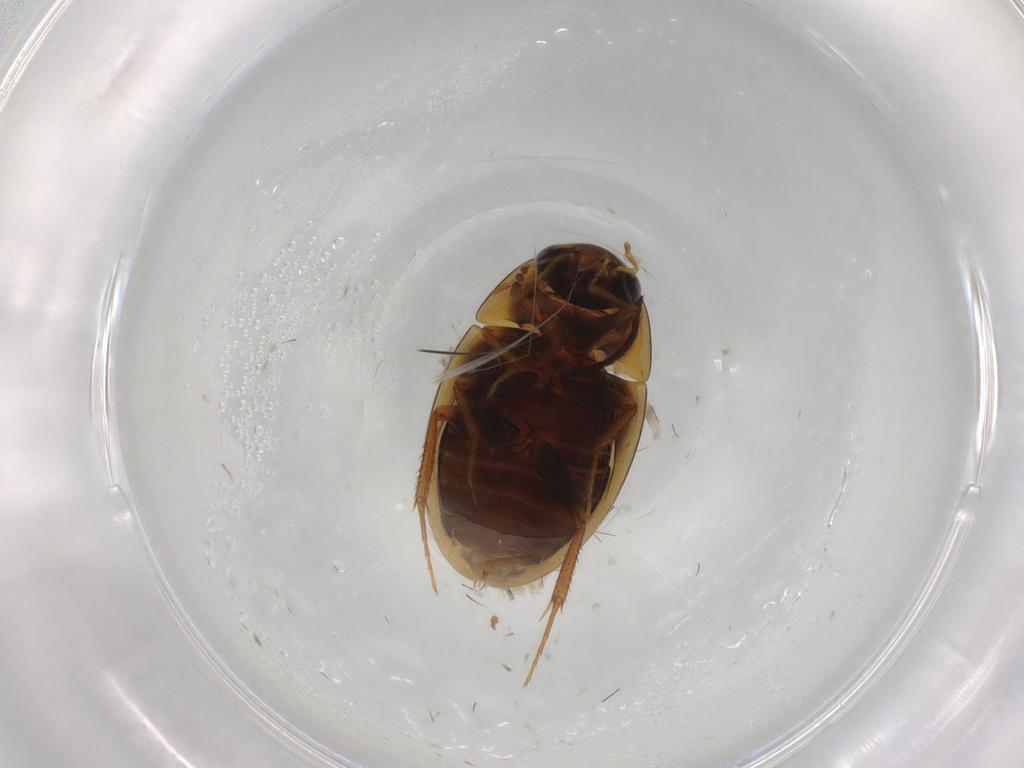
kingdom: Animalia
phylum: Arthropoda
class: Insecta
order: Coleoptera
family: Hydrophilidae
